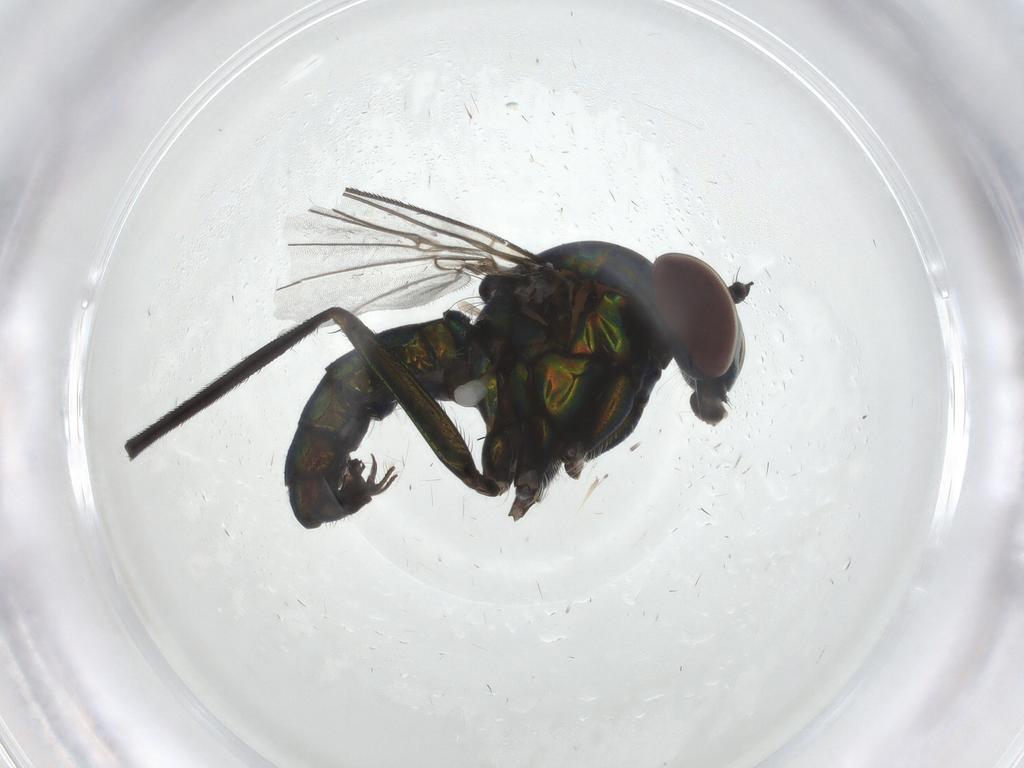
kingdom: Animalia
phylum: Arthropoda
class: Insecta
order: Diptera
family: Dolichopodidae
